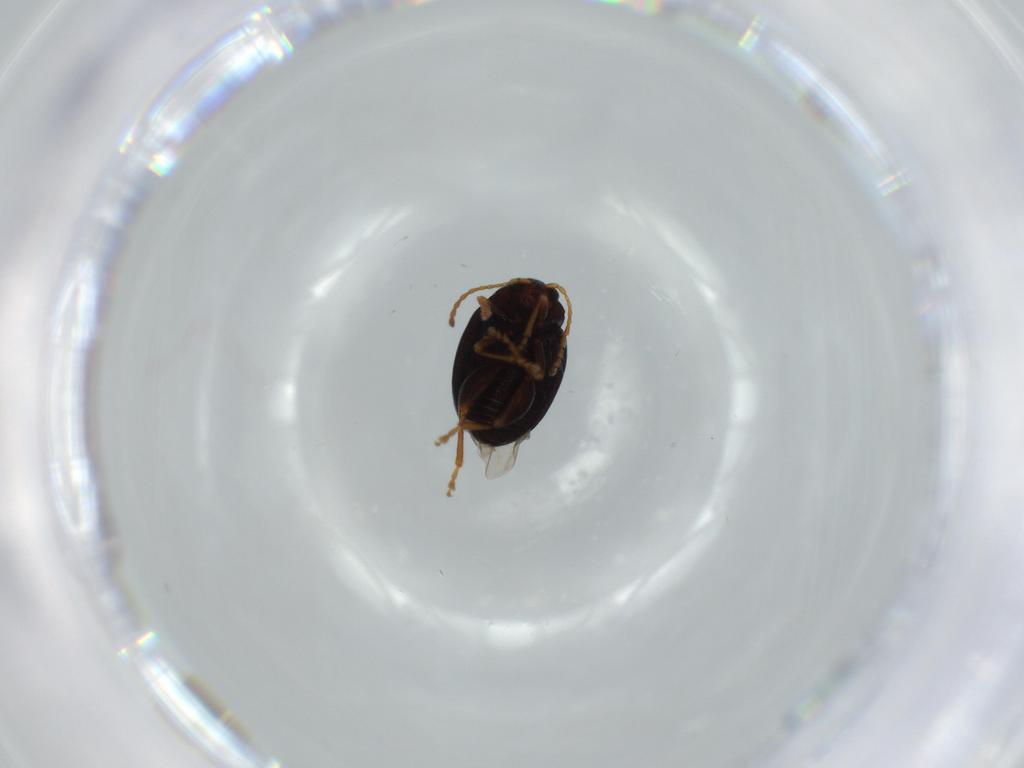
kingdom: Animalia
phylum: Arthropoda
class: Insecta
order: Coleoptera
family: Chrysomelidae
